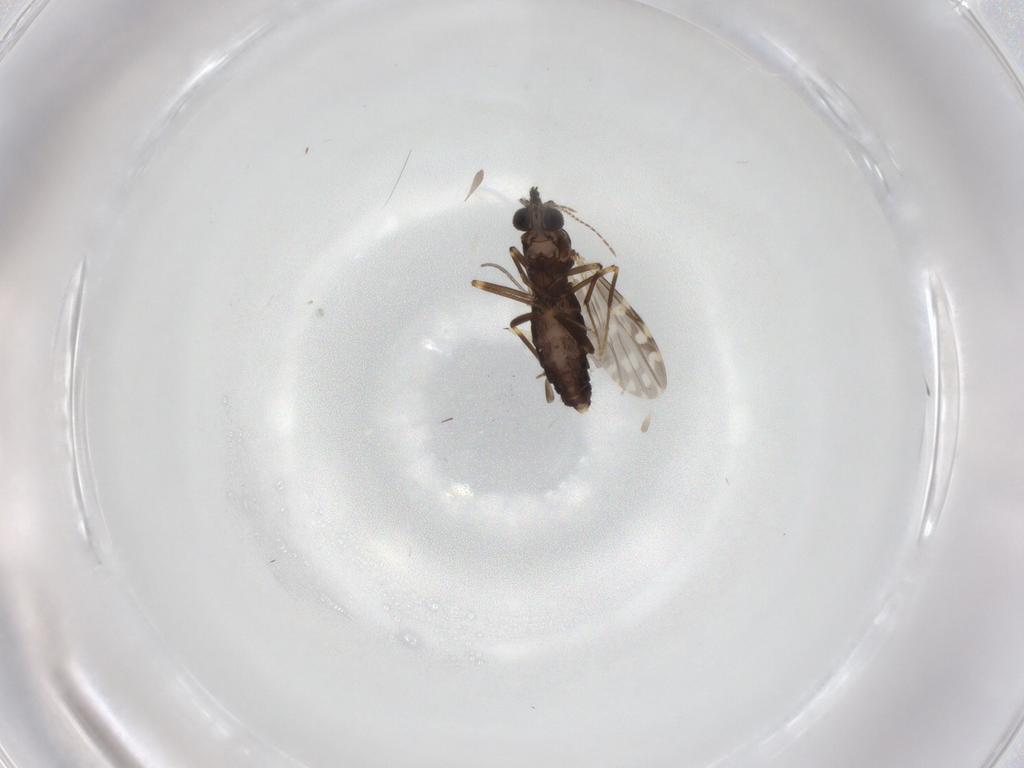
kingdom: Animalia
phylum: Arthropoda
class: Insecta
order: Diptera
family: Ceratopogonidae
